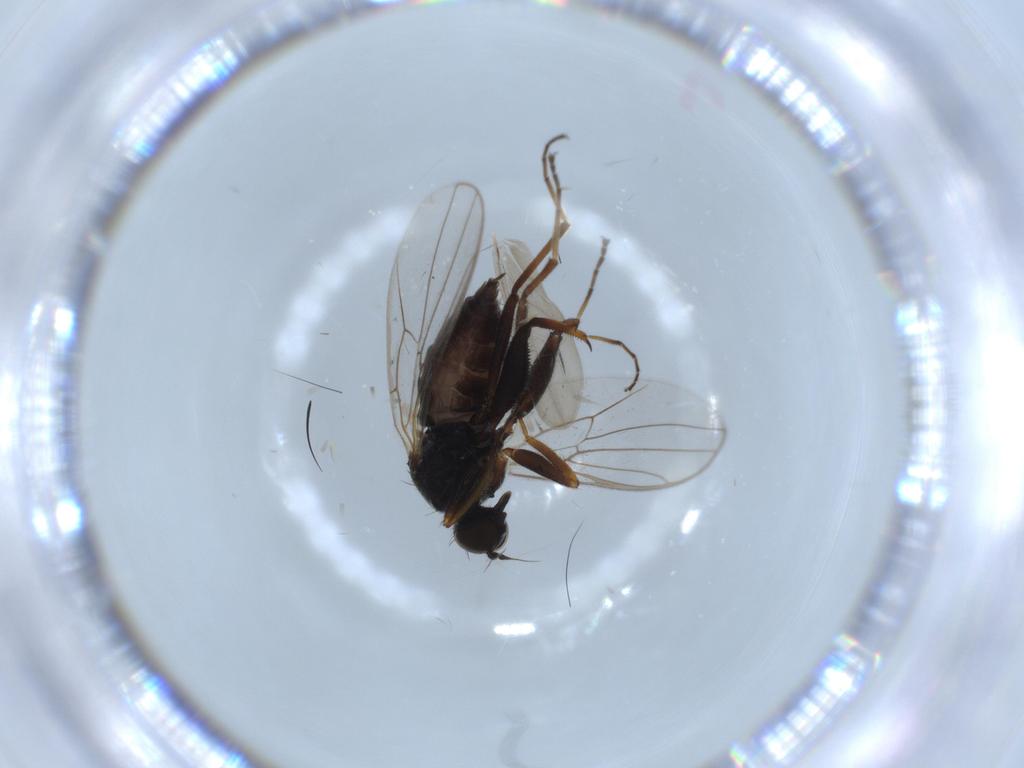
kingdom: Animalia
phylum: Arthropoda
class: Insecta
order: Diptera
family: Hybotidae
